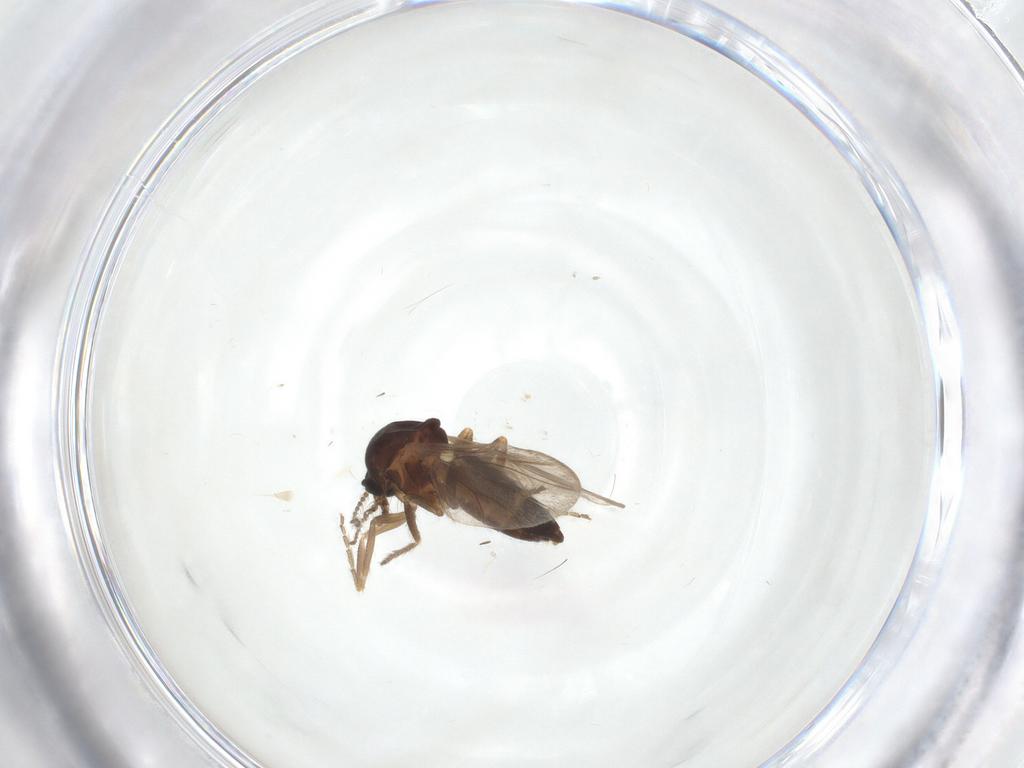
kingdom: Animalia
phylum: Arthropoda
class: Insecta
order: Diptera
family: Ceratopogonidae
